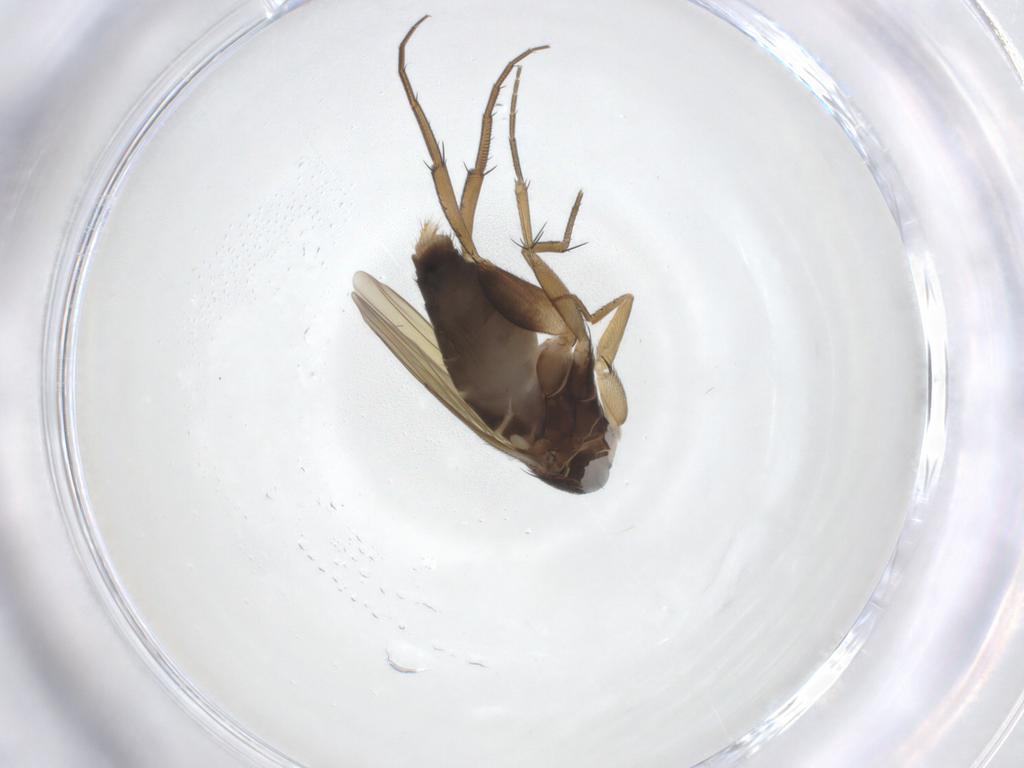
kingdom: Animalia
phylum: Arthropoda
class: Insecta
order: Diptera
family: Phoridae
